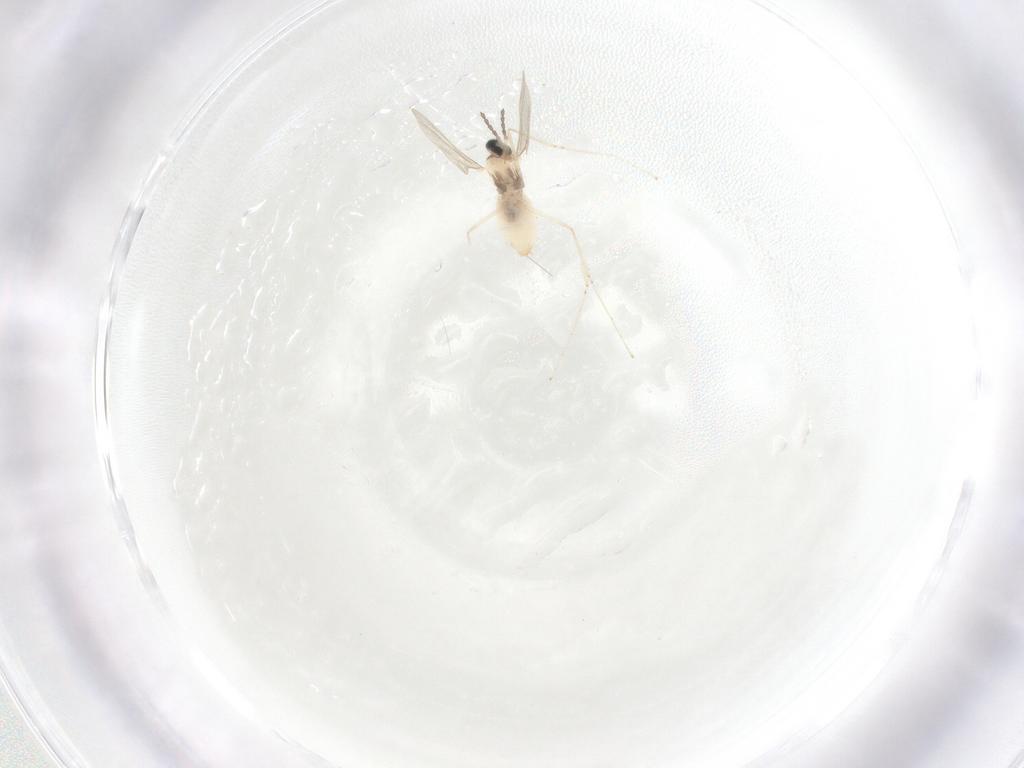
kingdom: Animalia
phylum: Arthropoda
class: Insecta
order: Diptera
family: Cecidomyiidae
